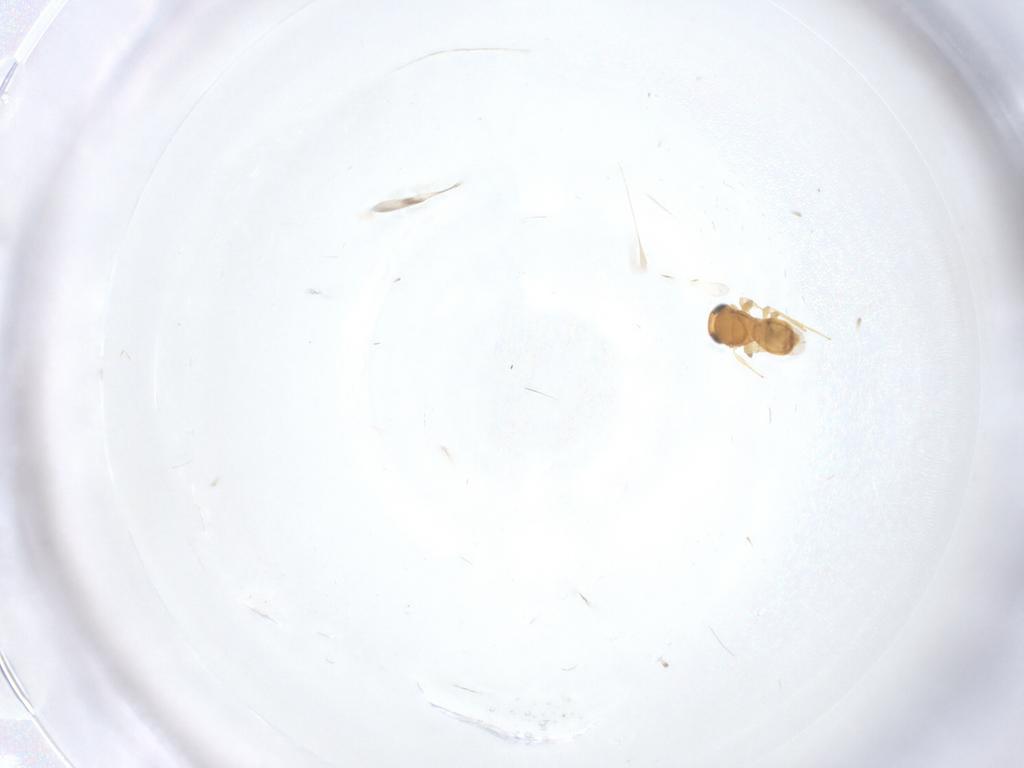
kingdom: Animalia
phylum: Arthropoda
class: Insecta
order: Hymenoptera
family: Scelionidae
